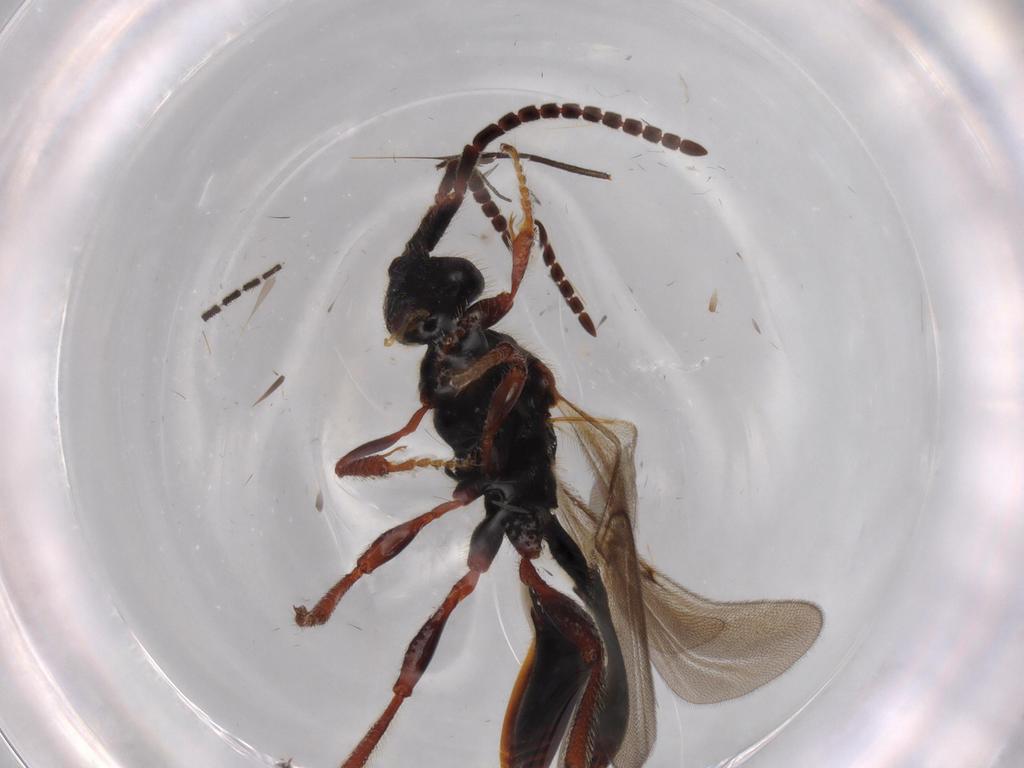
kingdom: Animalia
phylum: Arthropoda
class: Insecta
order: Hymenoptera
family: Diapriidae
